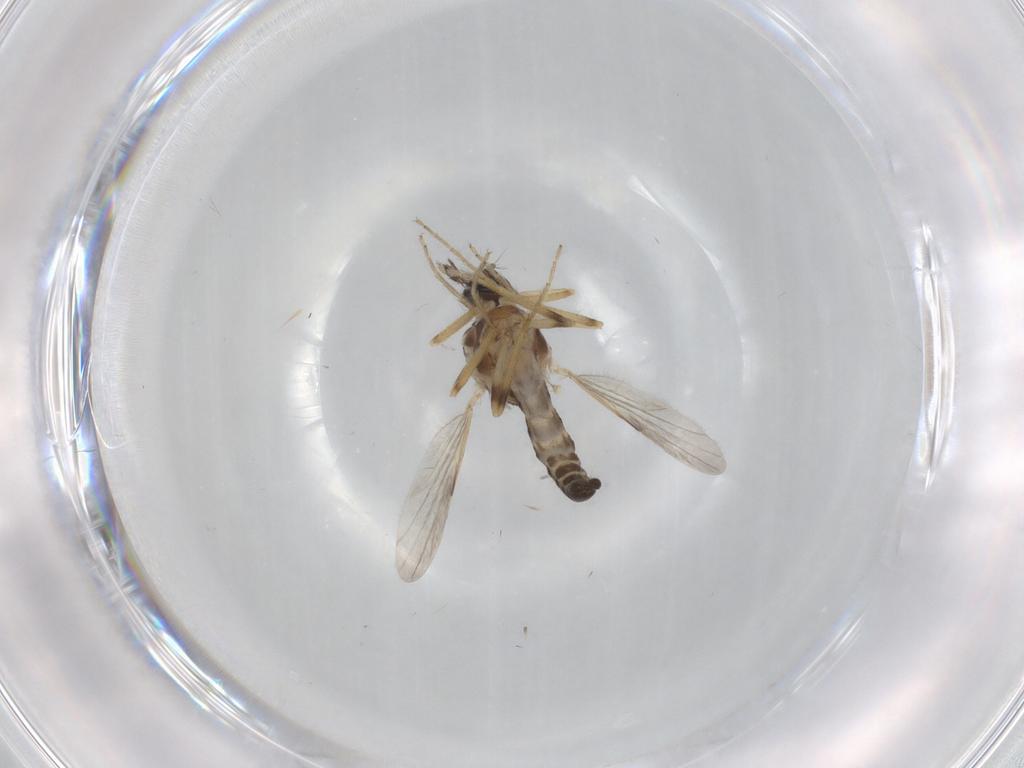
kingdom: Animalia
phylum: Arthropoda
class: Insecta
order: Diptera
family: Ceratopogonidae
